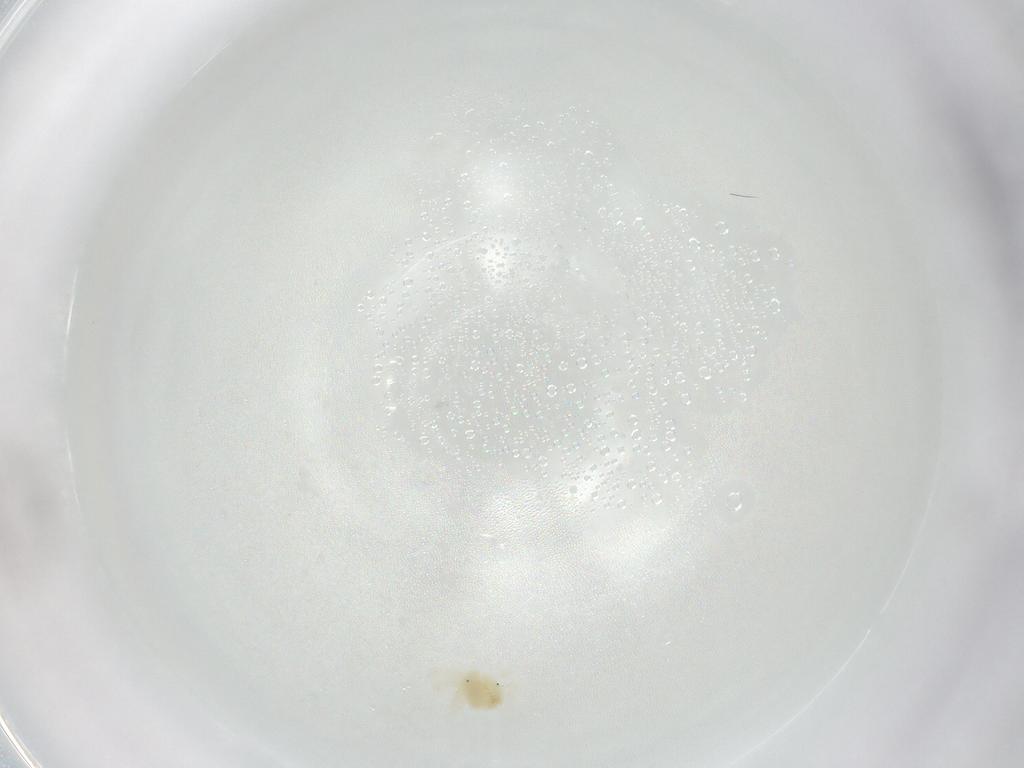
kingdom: Animalia
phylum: Arthropoda
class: Arachnida
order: Trombidiformes
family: Anystidae
